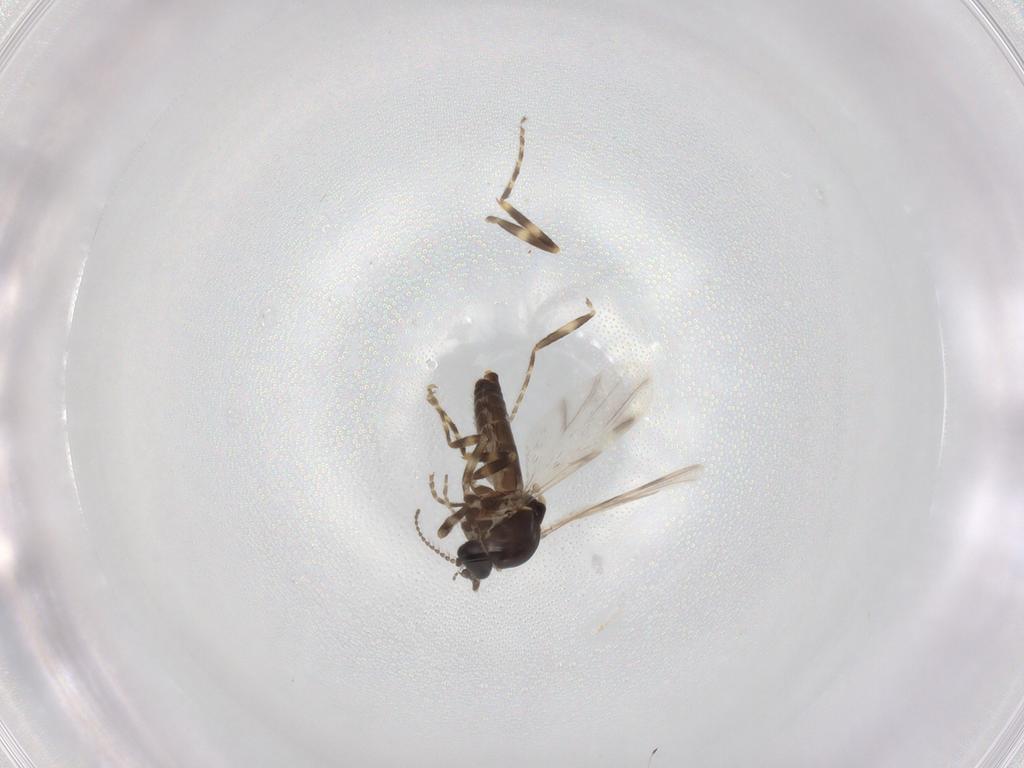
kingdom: Animalia
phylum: Arthropoda
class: Insecta
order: Diptera
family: Ceratopogonidae
